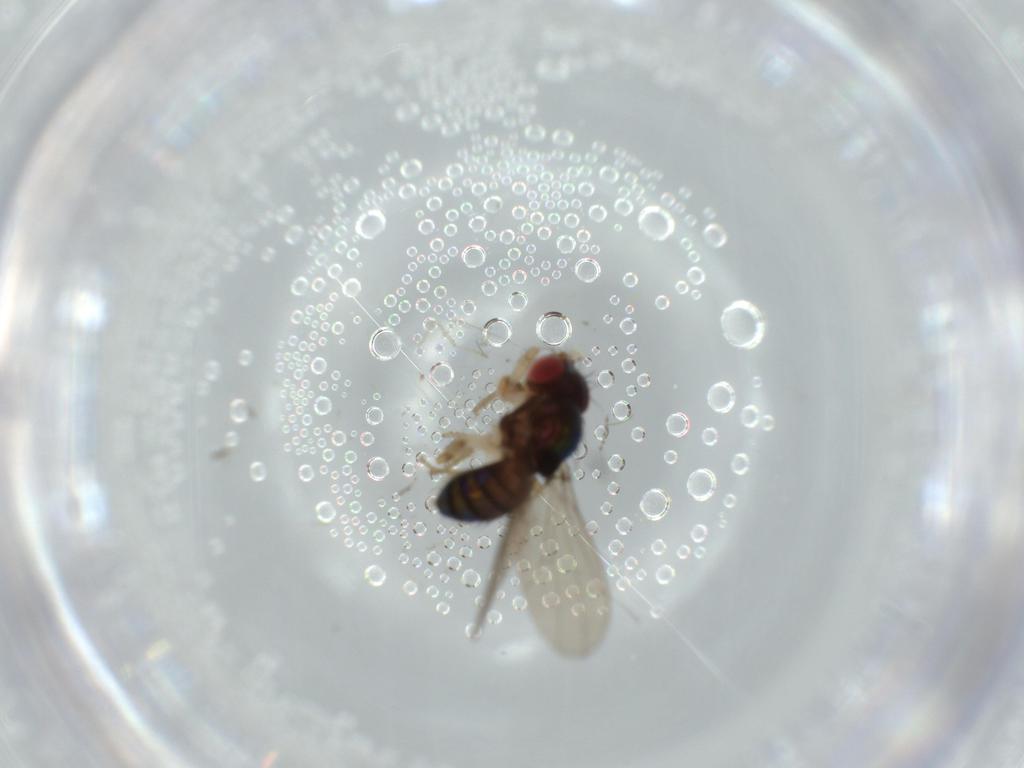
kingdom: Animalia
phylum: Arthropoda
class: Insecta
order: Diptera
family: Drosophilidae
